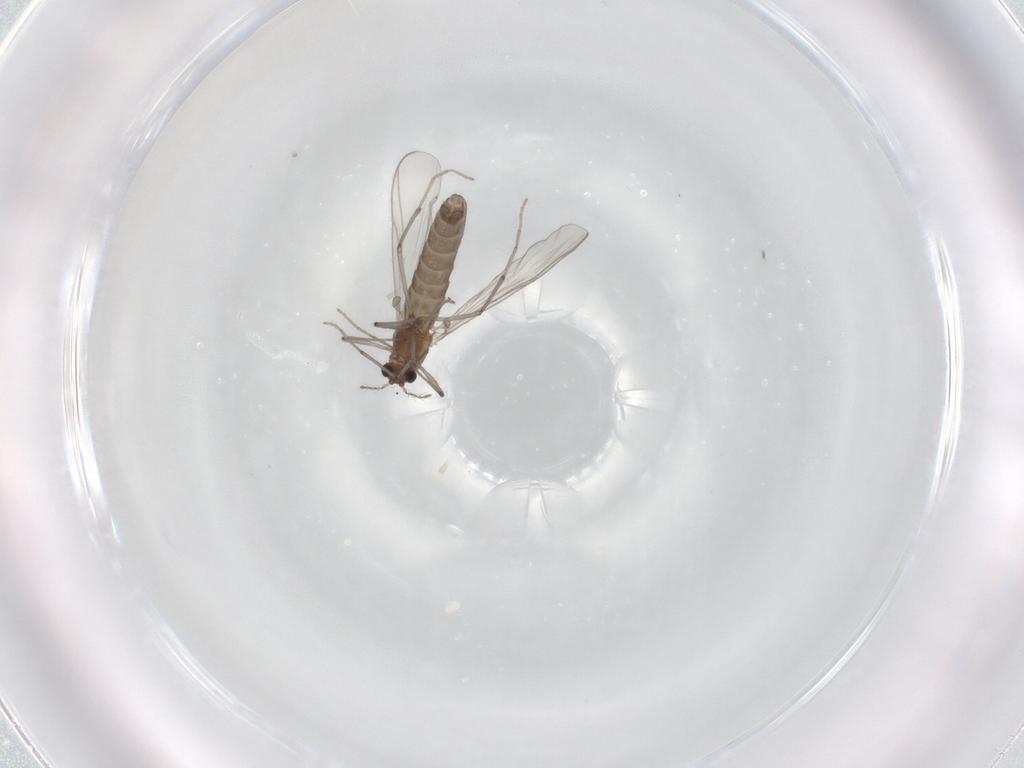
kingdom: Animalia
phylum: Arthropoda
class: Insecta
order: Diptera
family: Chironomidae
